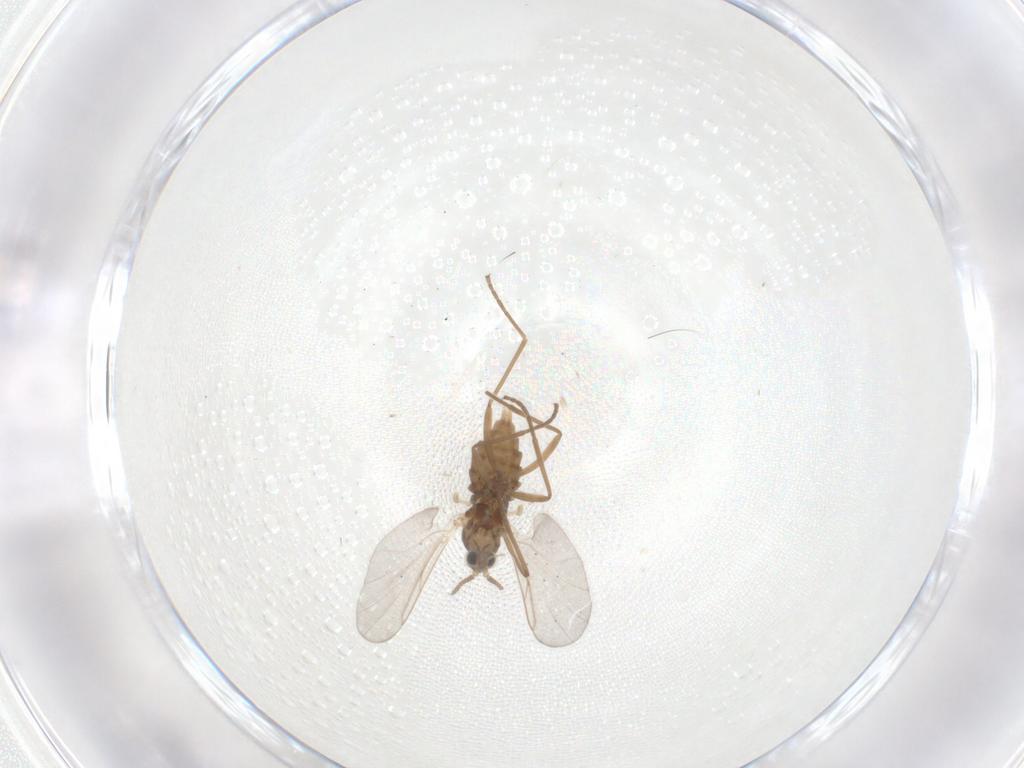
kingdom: Animalia
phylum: Arthropoda
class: Insecta
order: Diptera
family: Cecidomyiidae
